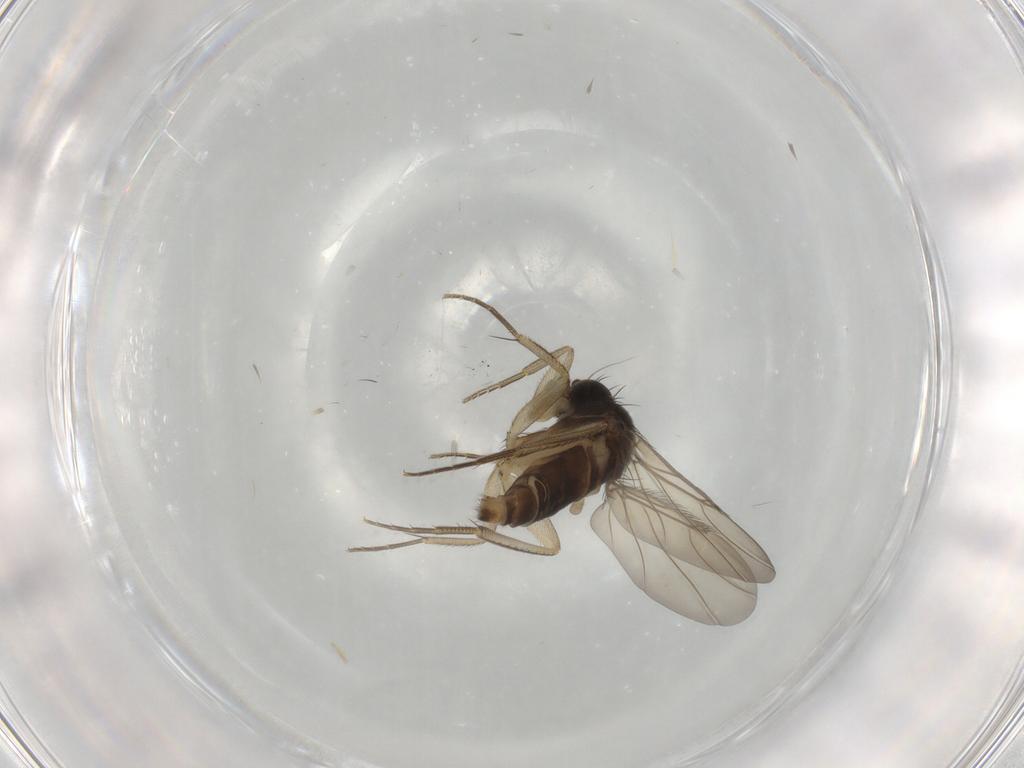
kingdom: Animalia
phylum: Arthropoda
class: Insecta
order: Diptera
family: Phoridae
